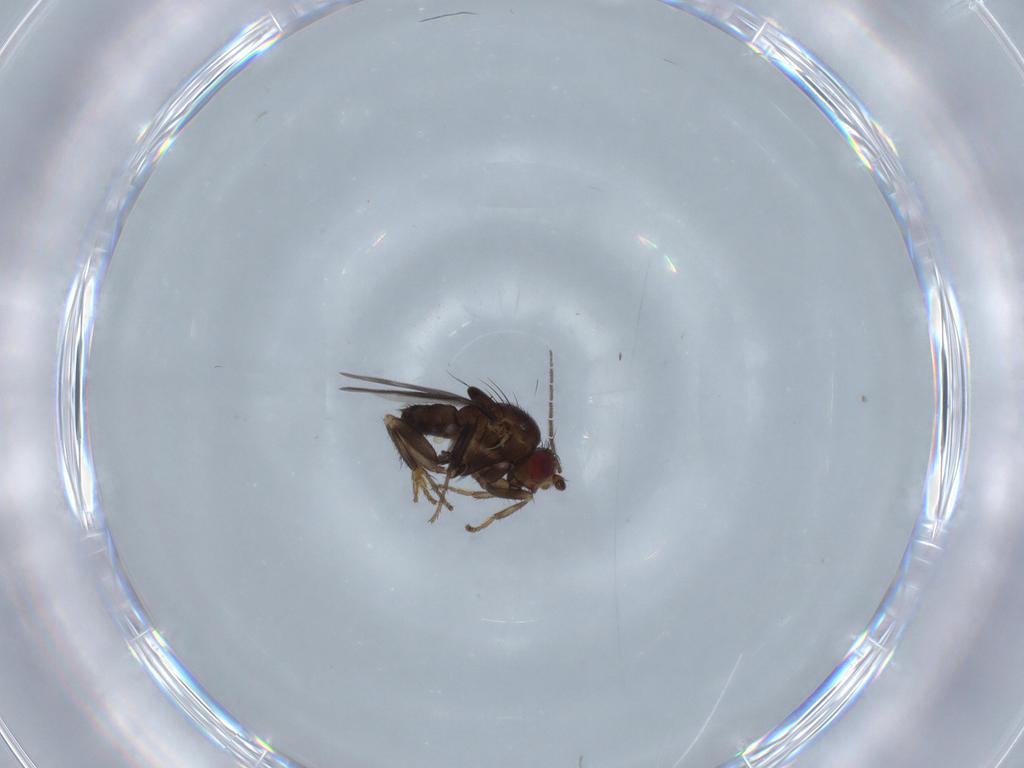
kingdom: Animalia
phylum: Arthropoda
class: Insecta
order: Diptera
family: Sphaeroceridae
